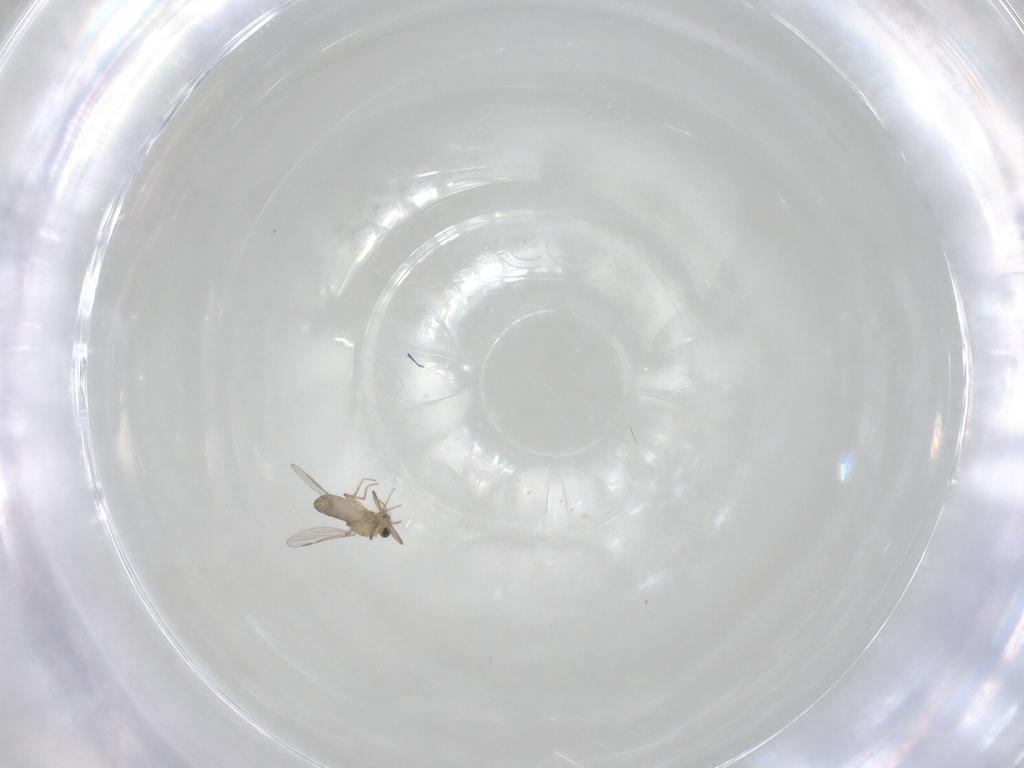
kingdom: Animalia
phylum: Arthropoda
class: Insecta
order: Diptera
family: Chironomidae
